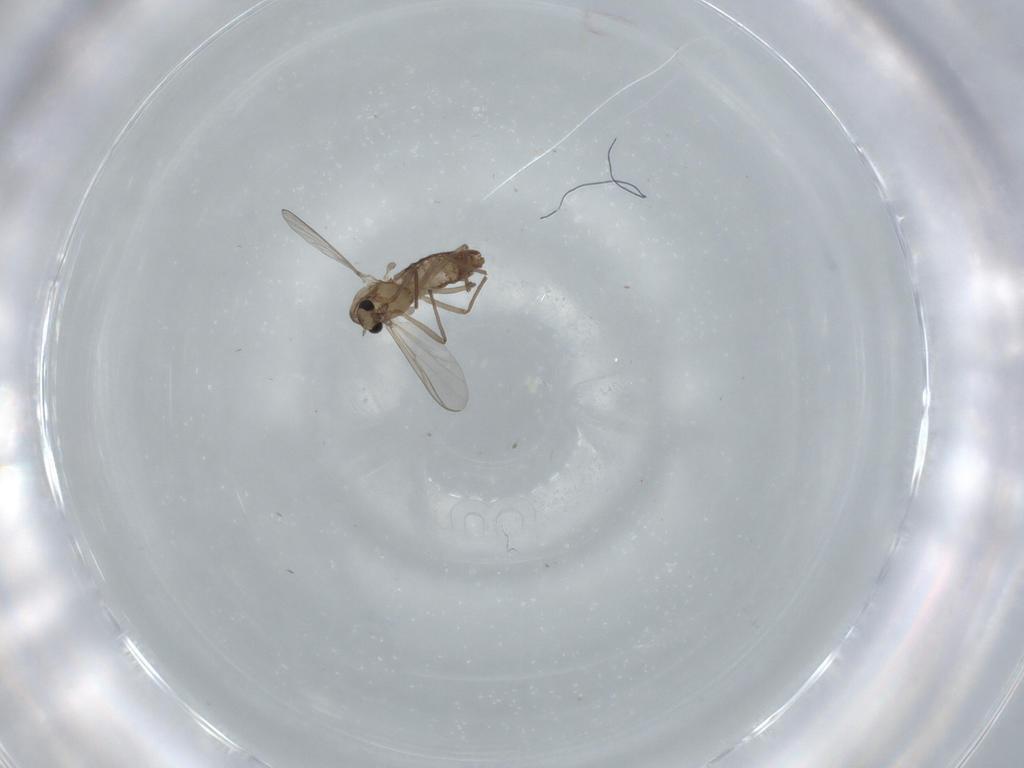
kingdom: Animalia
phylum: Arthropoda
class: Insecta
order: Diptera
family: Chironomidae
